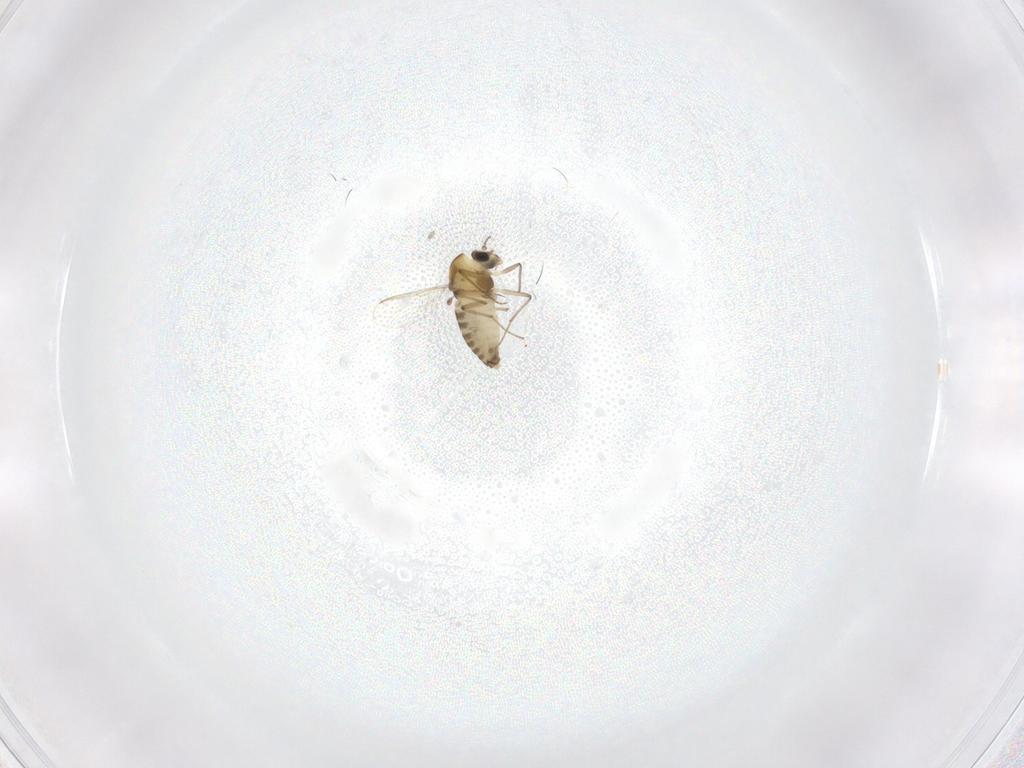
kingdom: Animalia
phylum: Arthropoda
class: Insecta
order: Diptera
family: Chironomidae
